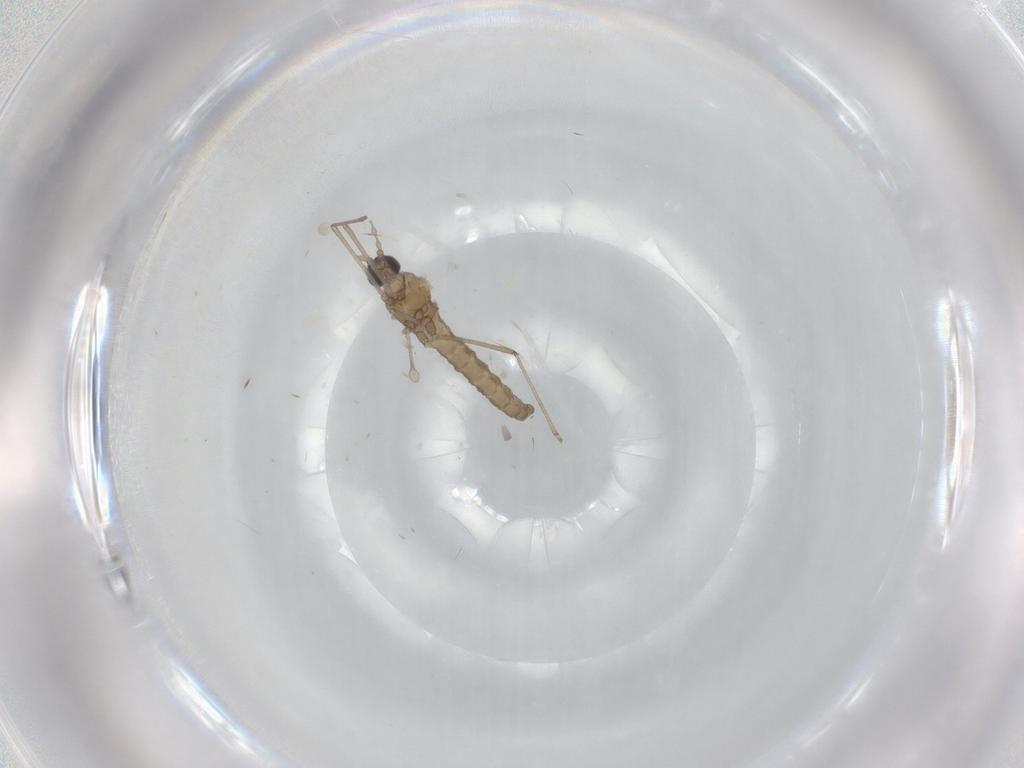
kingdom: Animalia
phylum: Arthropoda
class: Insecta
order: Diptera
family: Cecidomyiidae
